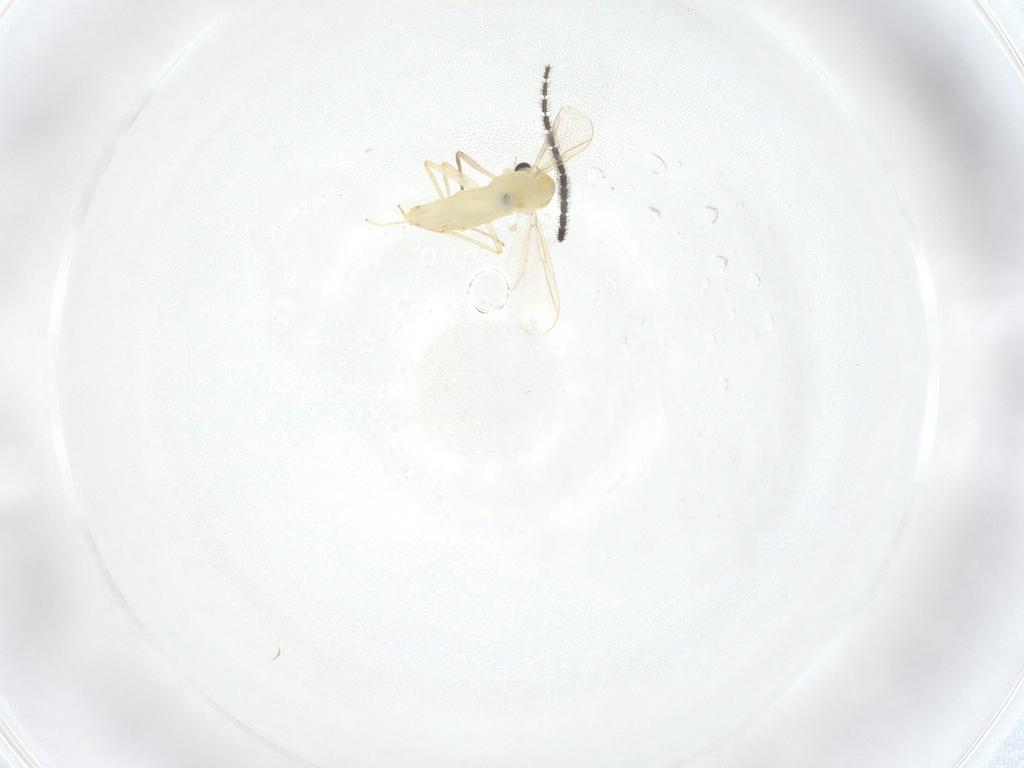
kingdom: Animalia
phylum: Arthropoda
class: Insecta
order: Diptera
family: Chironomidae
